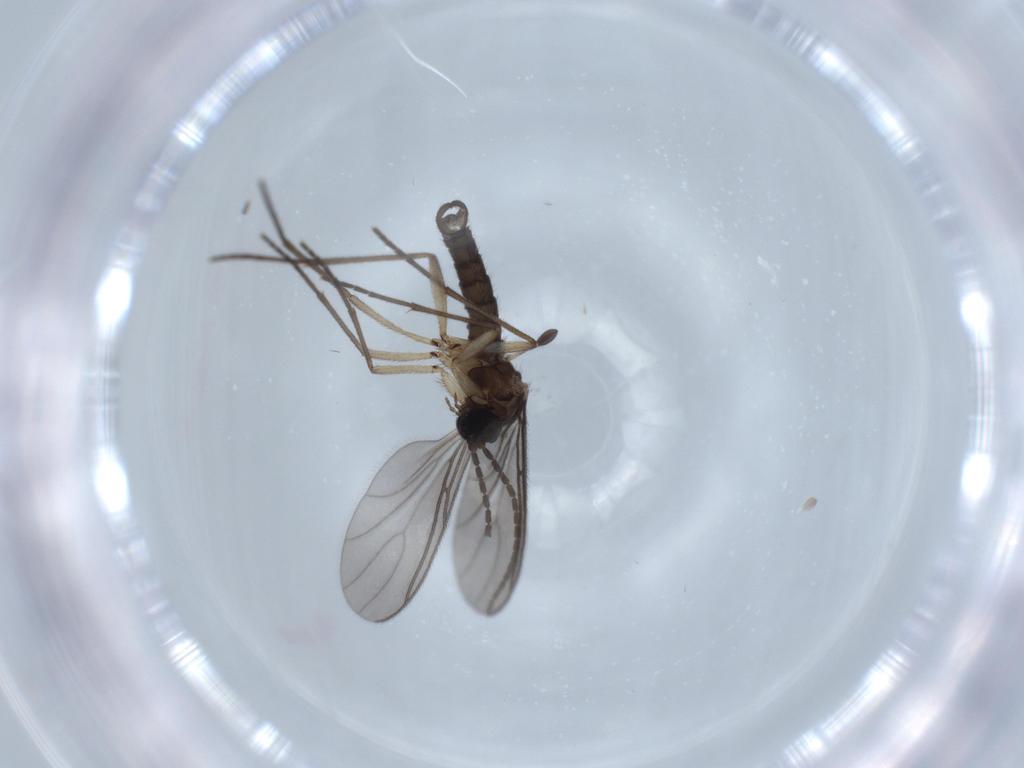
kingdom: Animalia
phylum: Arthropoda
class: Insecta
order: Diptera
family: Sciaridae
